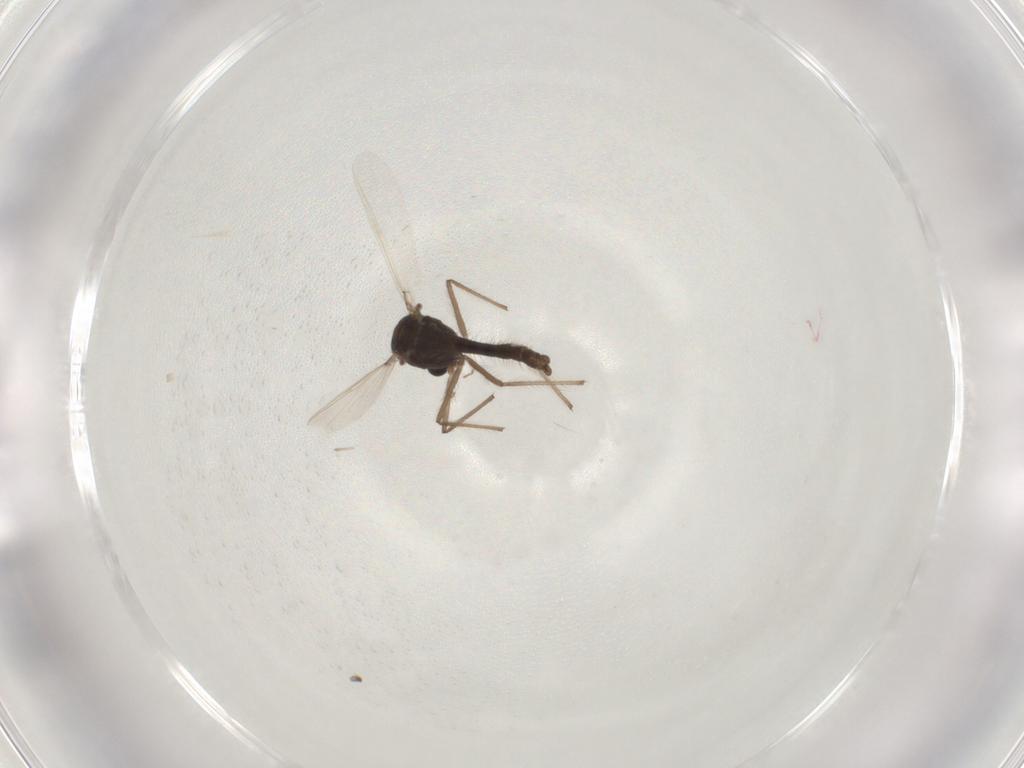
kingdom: Animalia
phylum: Arthropoda
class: Insecta
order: Diptera
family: Chironomidae
